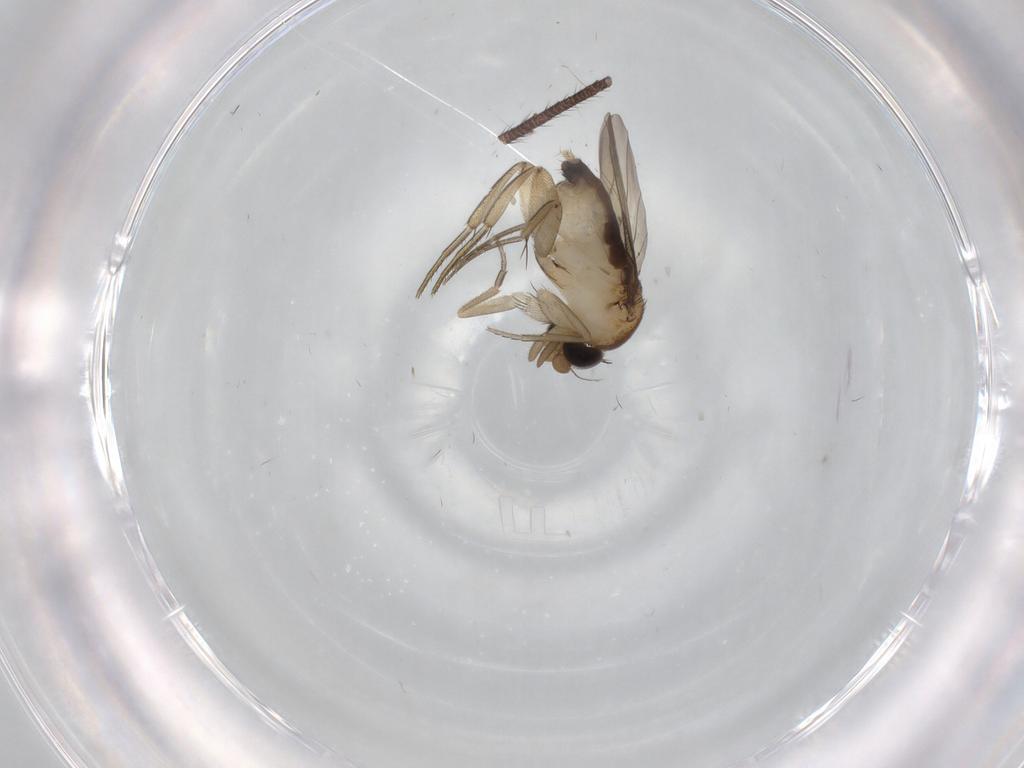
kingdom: Animalia
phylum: Arthropoda
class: Insecta
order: Diptera
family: Phoridae
